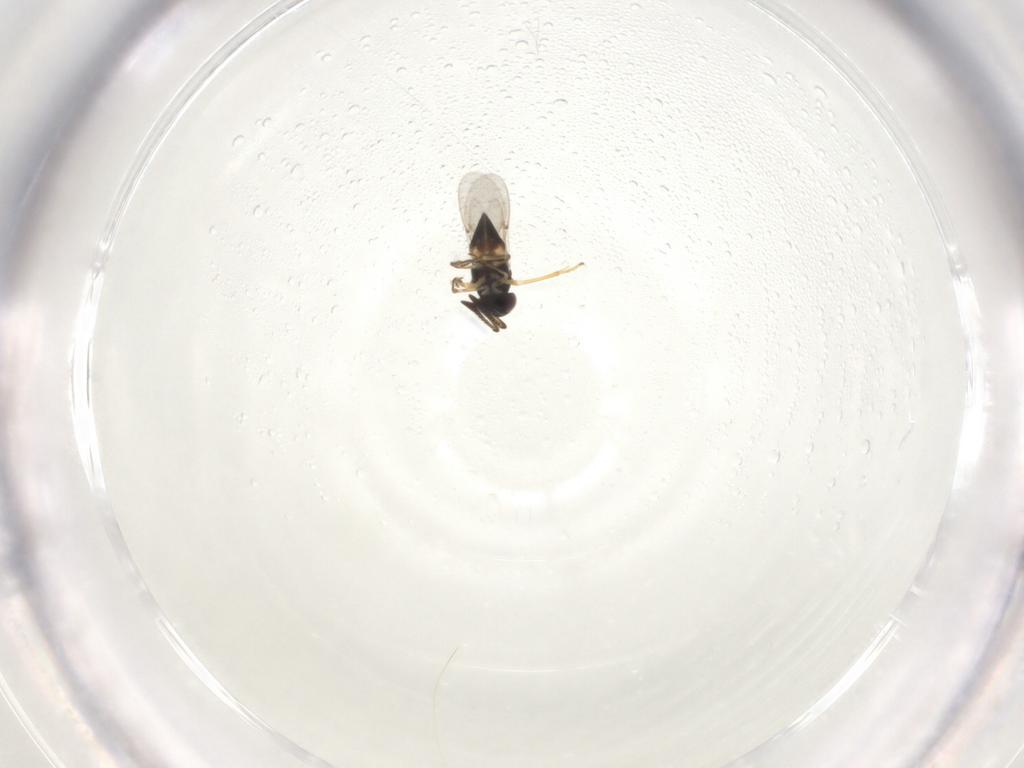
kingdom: Animalia
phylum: Arthropoda
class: Insecta
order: Hymenoptera
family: Encyrtidae
